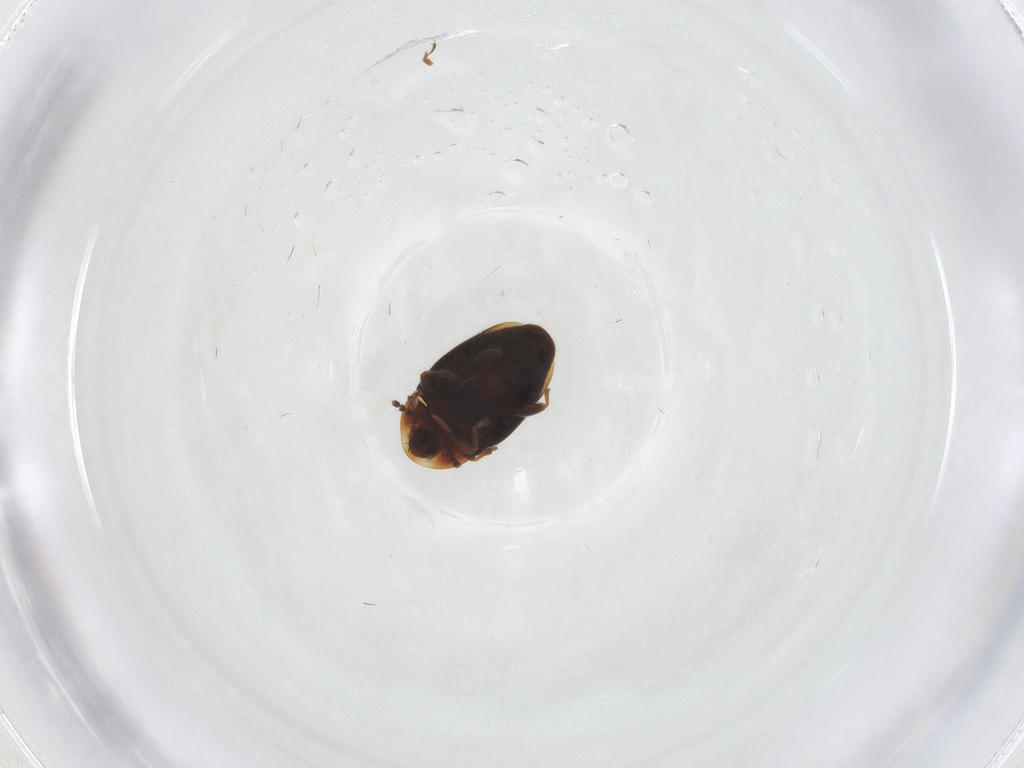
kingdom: Animalia
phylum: Arthropoda
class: Insecta
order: Coleoptera
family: Corylophidae
